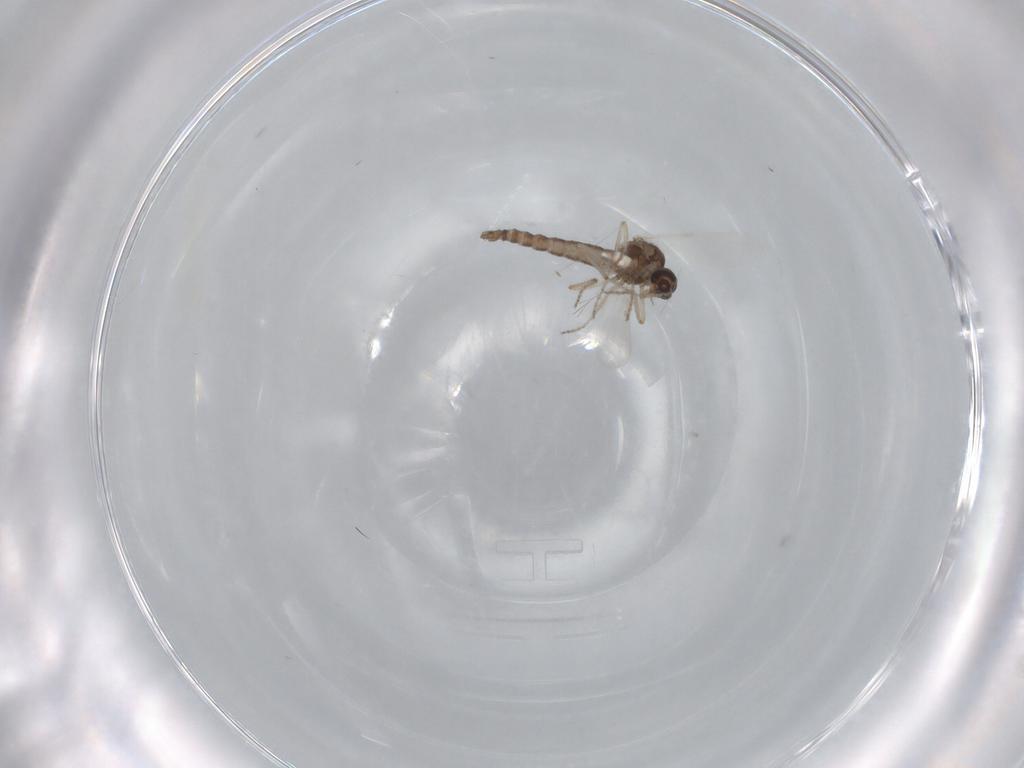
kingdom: Animalia
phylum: Arthropoda
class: Insecta
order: Diptera
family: Ceratopogonidae
